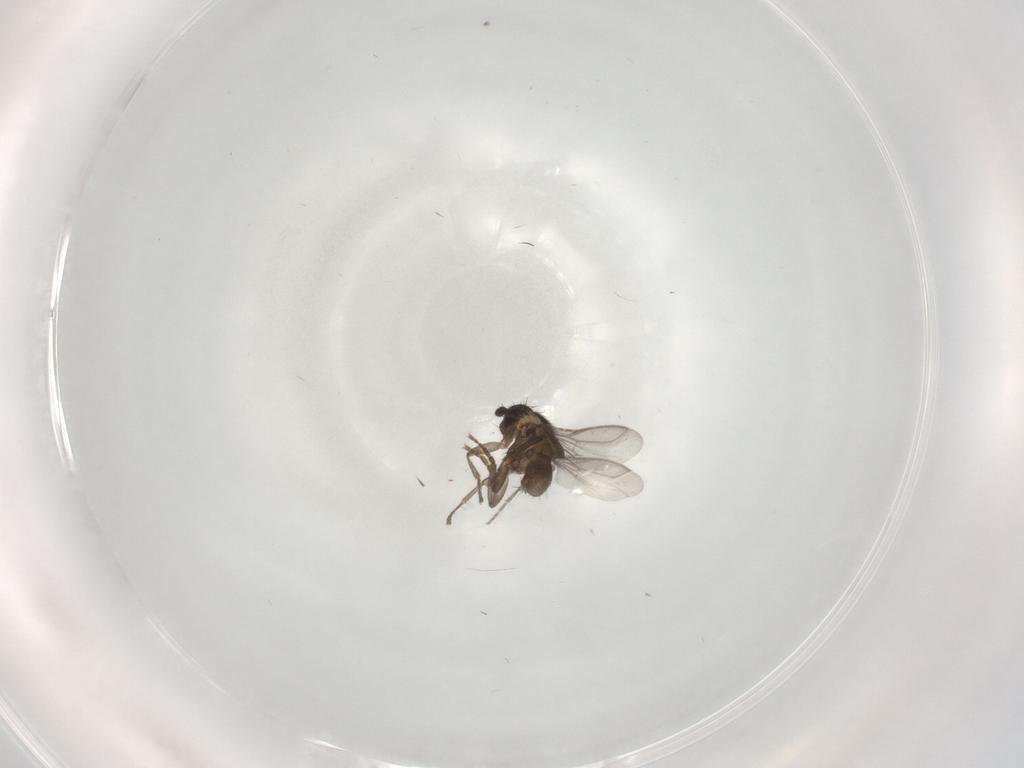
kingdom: Animalia
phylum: Arthropoda
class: Insecta
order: Diptera
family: Sphaeroceridae
